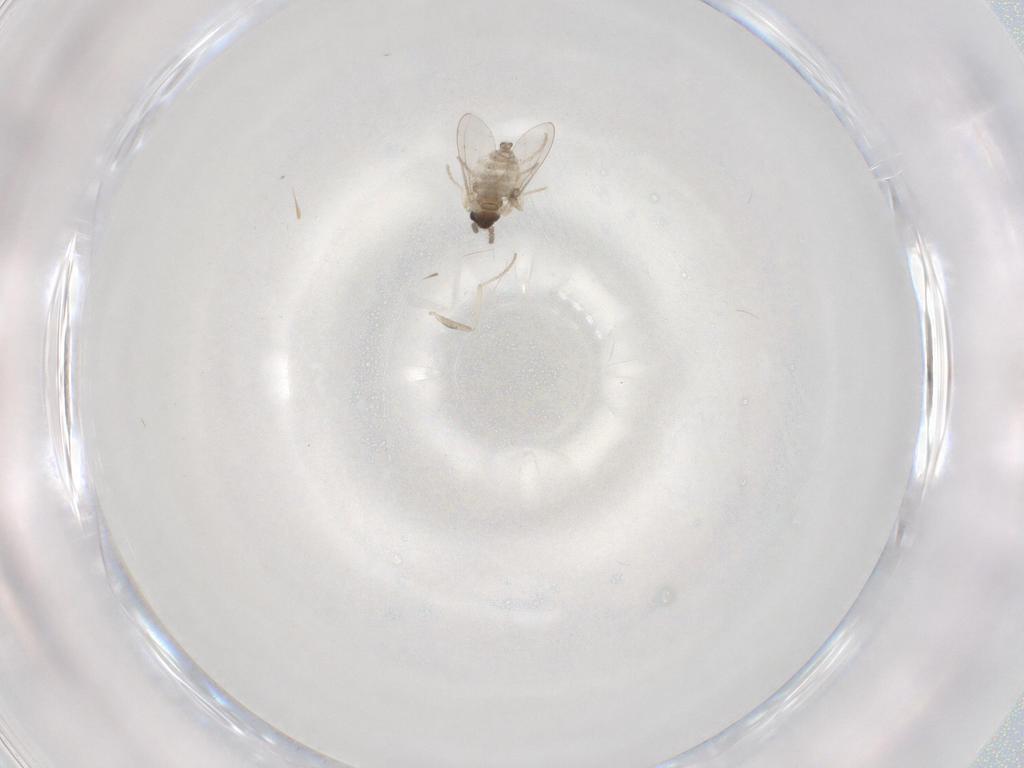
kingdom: Animalia
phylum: Arthropoda
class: Insecta
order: Diptera
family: Cecidomyiidae
